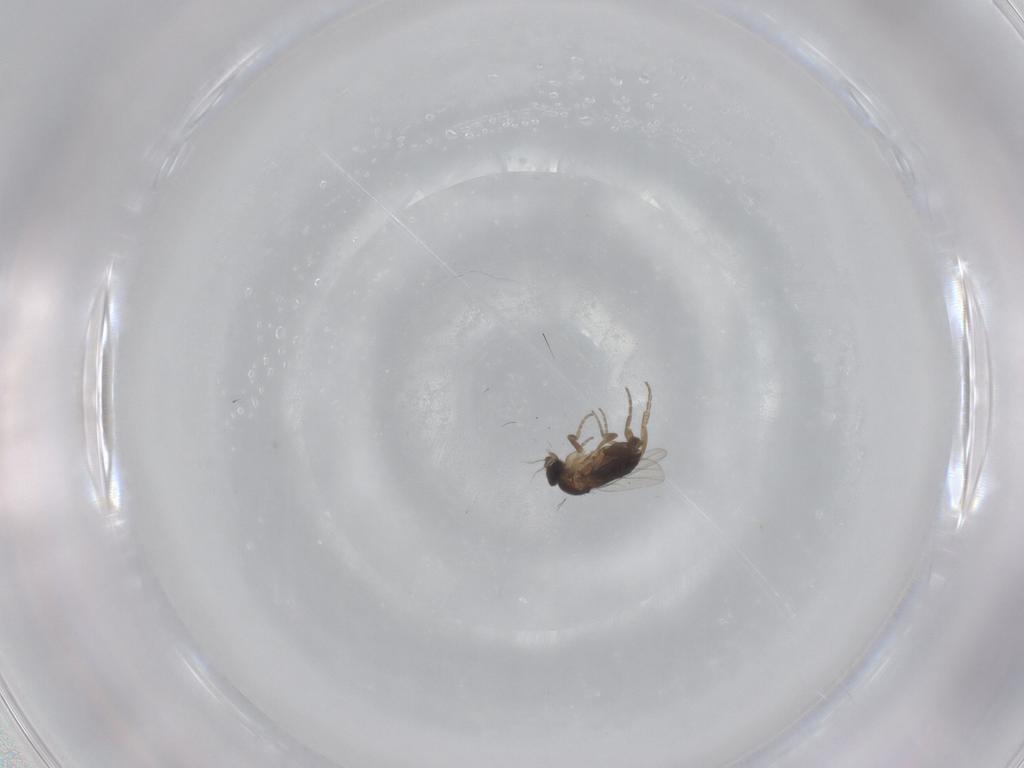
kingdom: Animalia
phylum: Arthropoda
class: Insecta
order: Diptera
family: Phoridae
